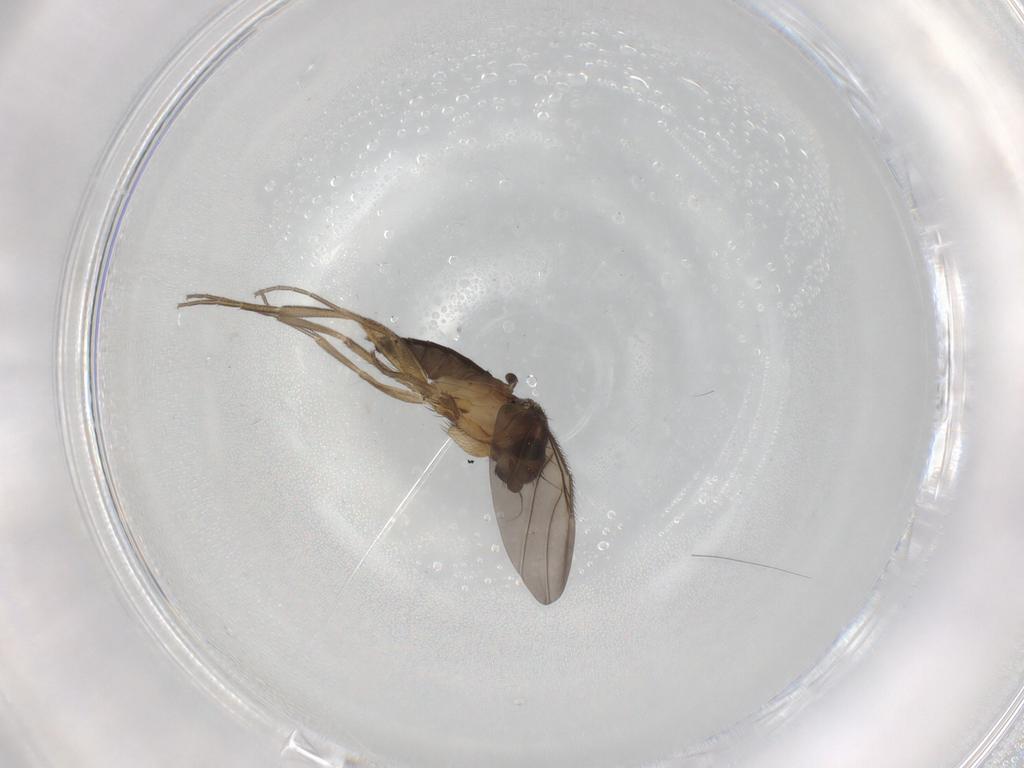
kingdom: Animalia
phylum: Arthropoda
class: Insecta
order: Diptera
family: Phoridae
